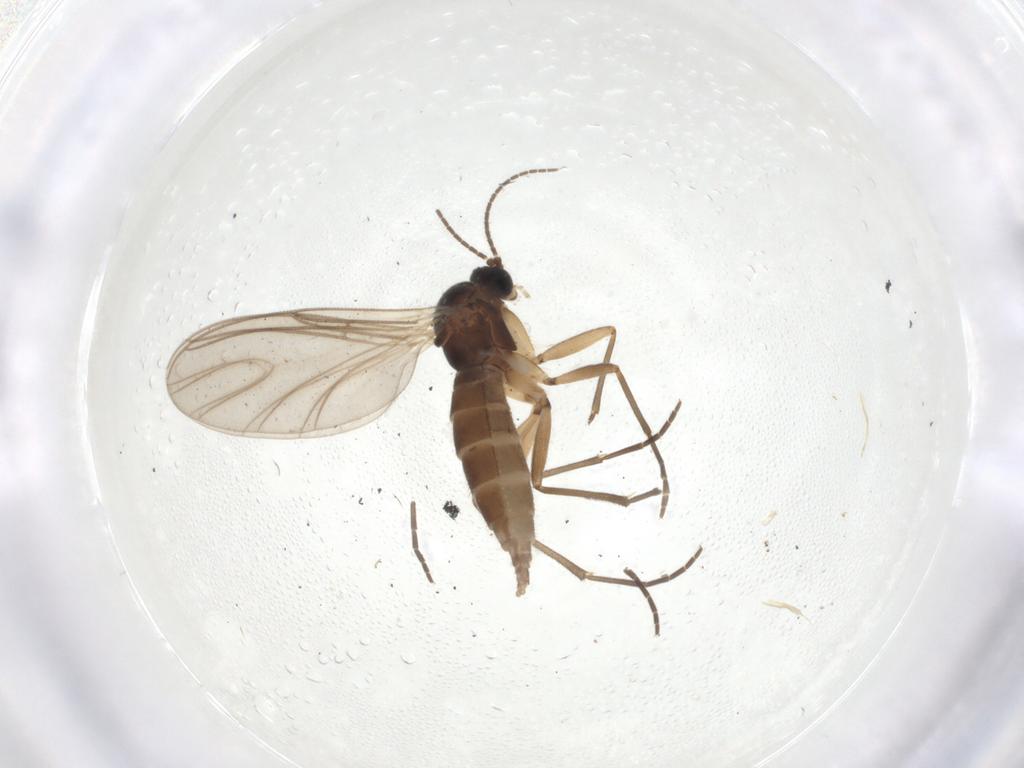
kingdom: Animalia
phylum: Arthropoda
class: Insecta
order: Diptera
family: Sciaridae
